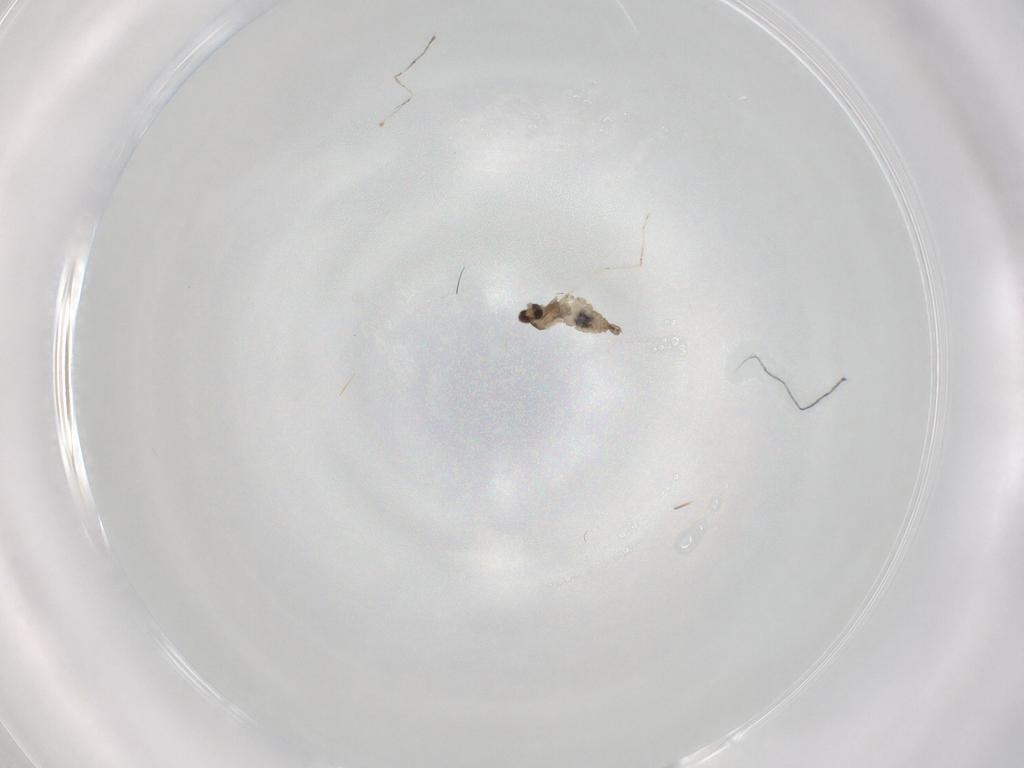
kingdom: Animalia
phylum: Arthropoda
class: Insecta
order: Diptera
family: Cecidomyiidae
